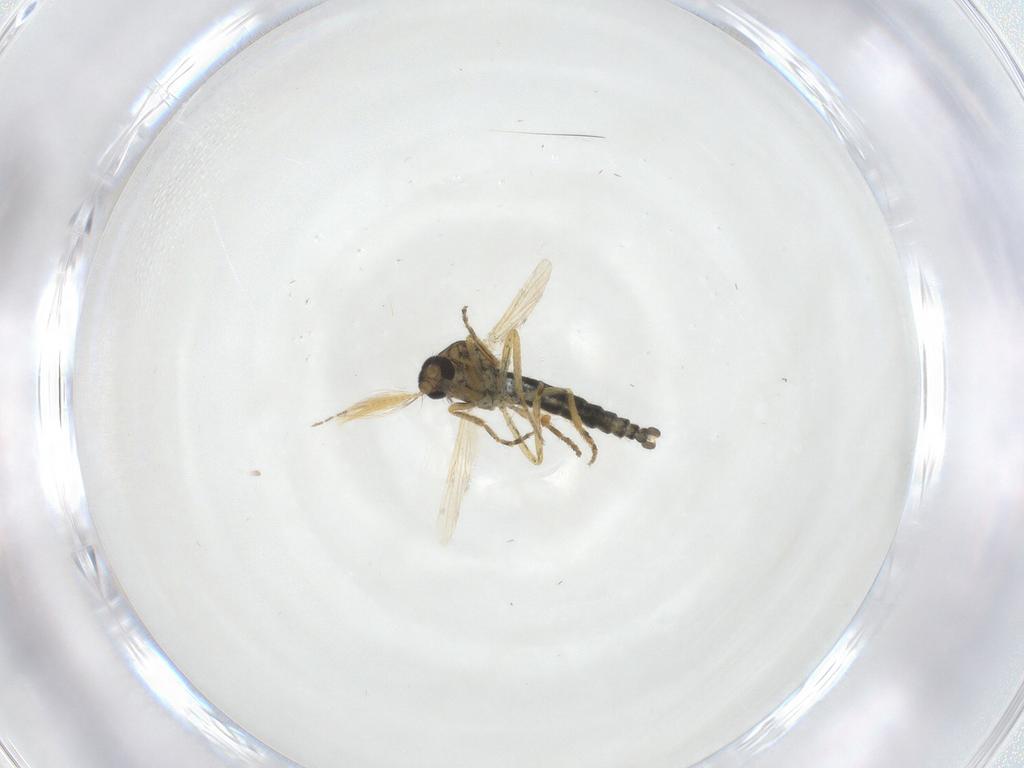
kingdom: Animalia
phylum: Arthropoda
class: Insecta
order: Diptera
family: Ceratopogonidae
